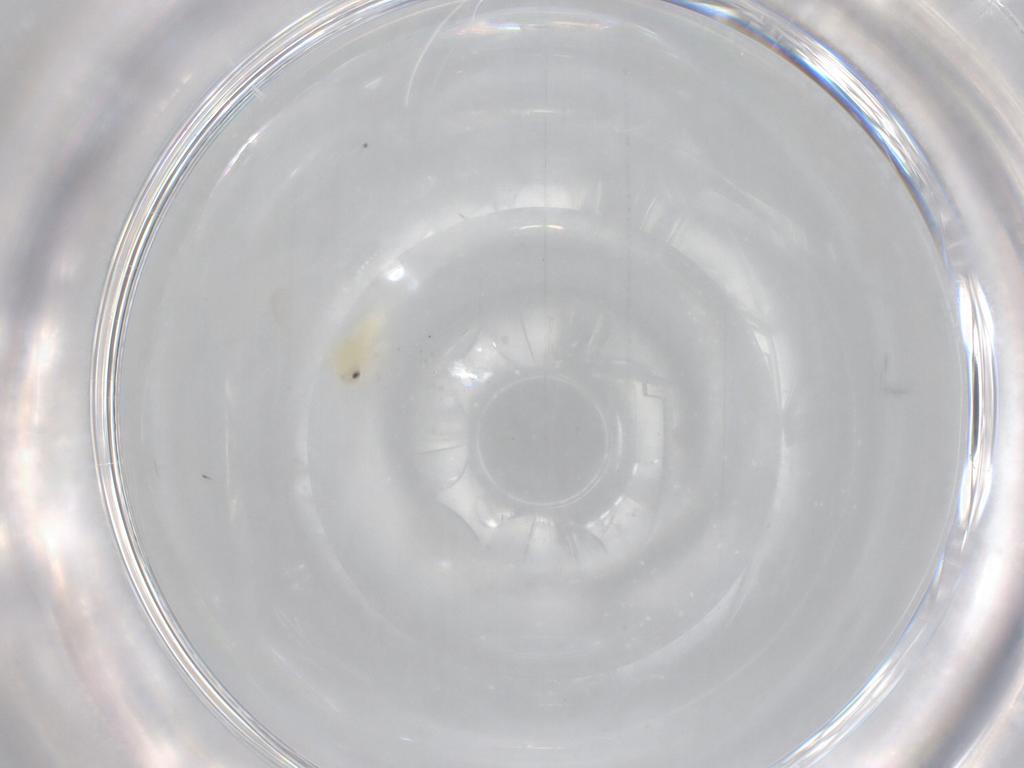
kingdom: Animalia
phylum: Arthropoda
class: Insecta
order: Hemiptera
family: Aleyrodidae
